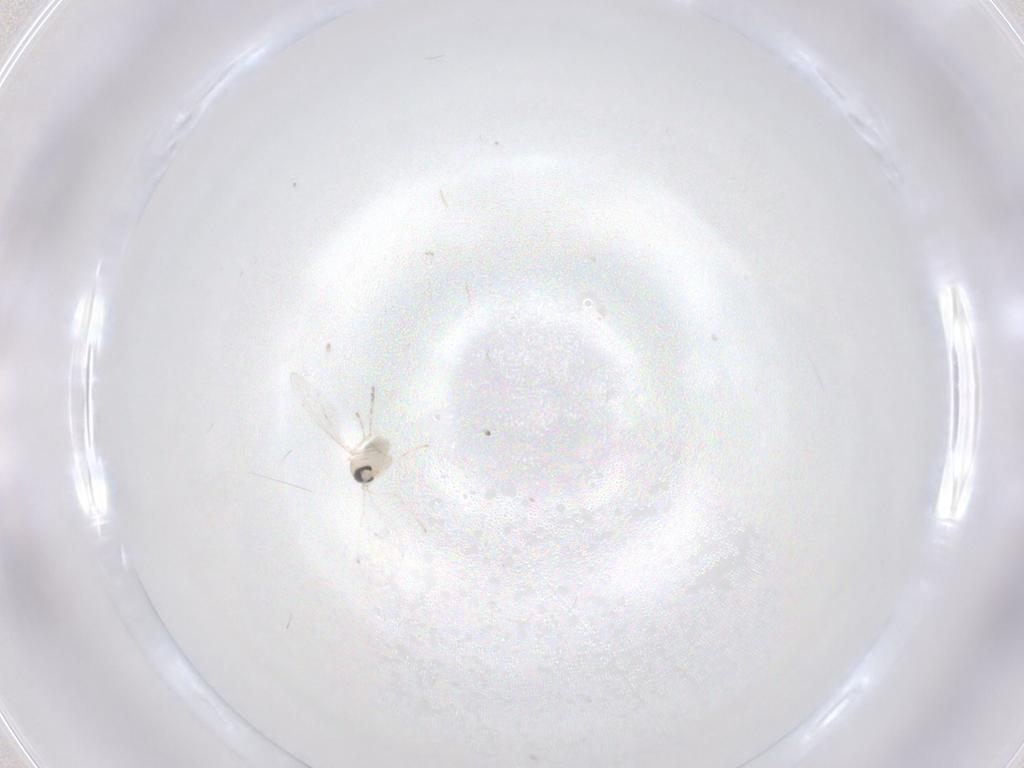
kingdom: Animalia
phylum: Arthropoda
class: Insecta
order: Diptera
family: Cecidomyiidae
